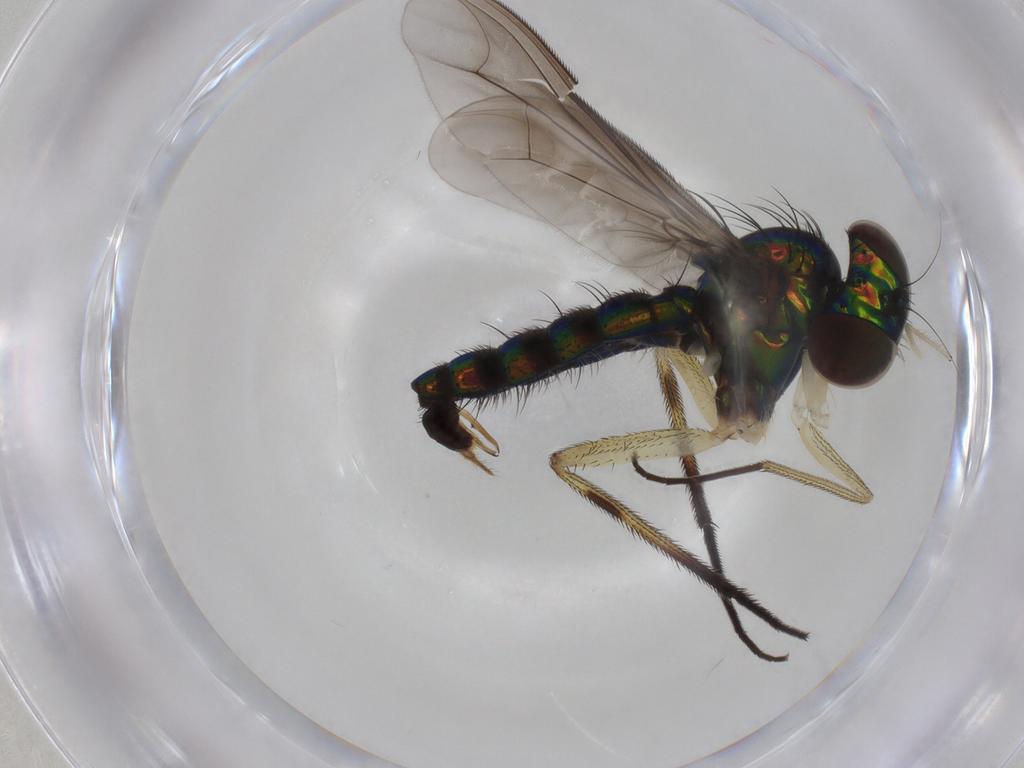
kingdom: Animalia
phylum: Arthropoda
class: Insecta
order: Diptera
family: Chironomidae
